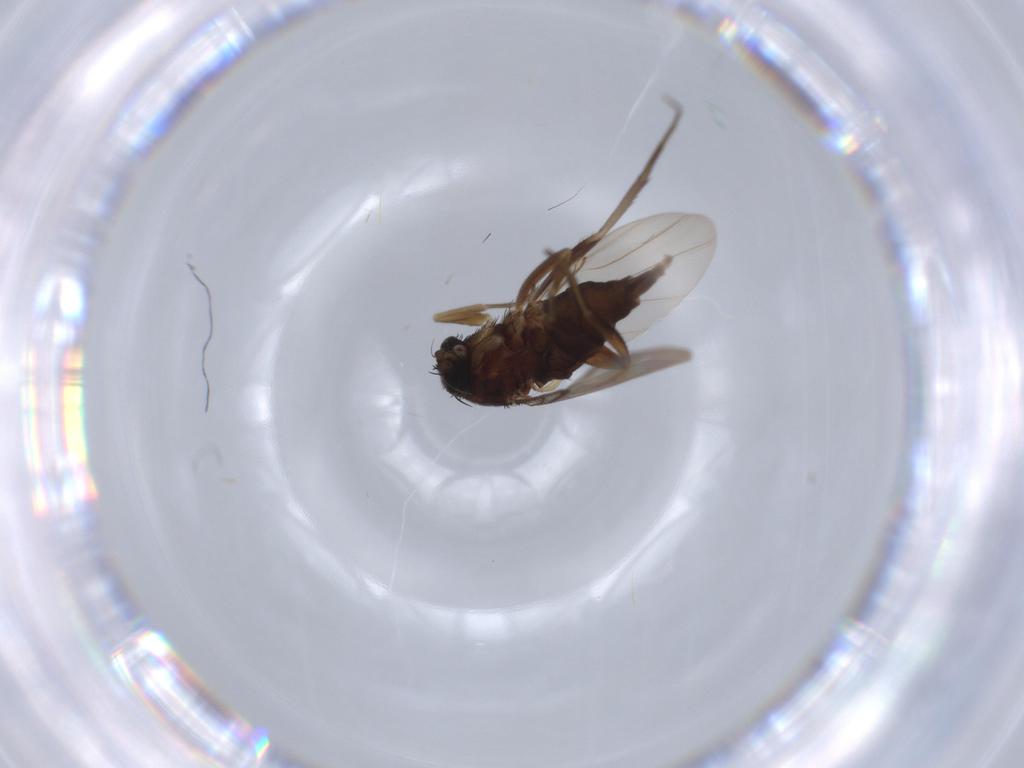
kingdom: Animalia
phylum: Arthropoda
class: Insecta
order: Diptera
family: Phoridae
